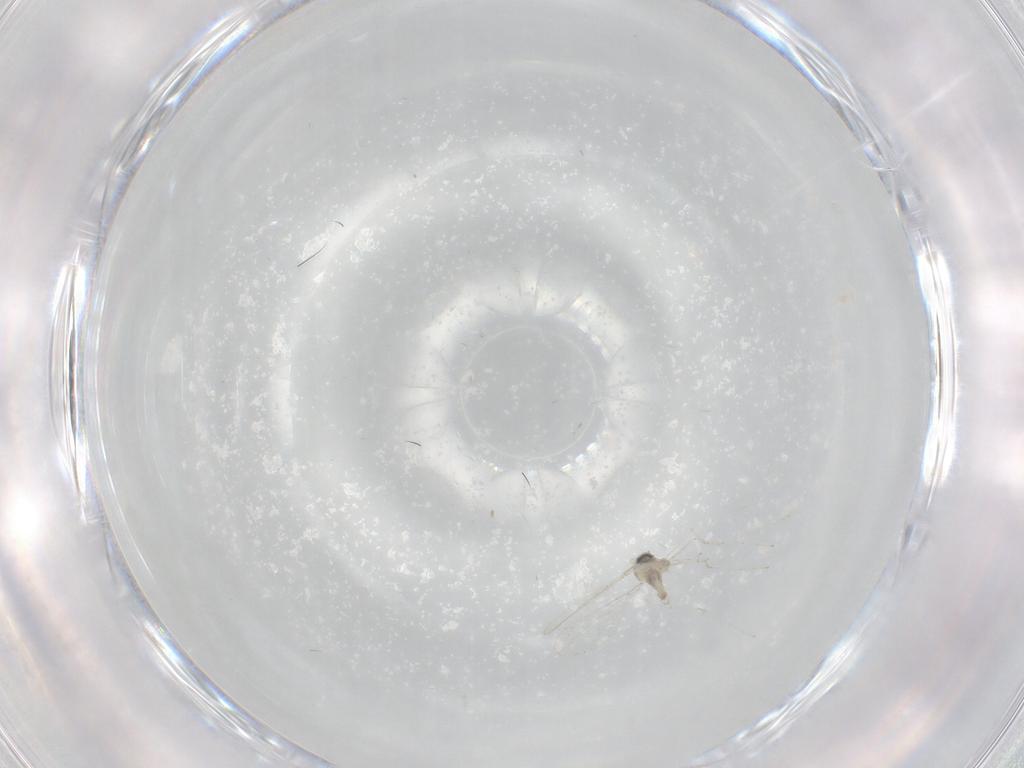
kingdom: Animalia
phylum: Arthropoda
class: Insecta
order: Diptera
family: Cecidomyiidae
